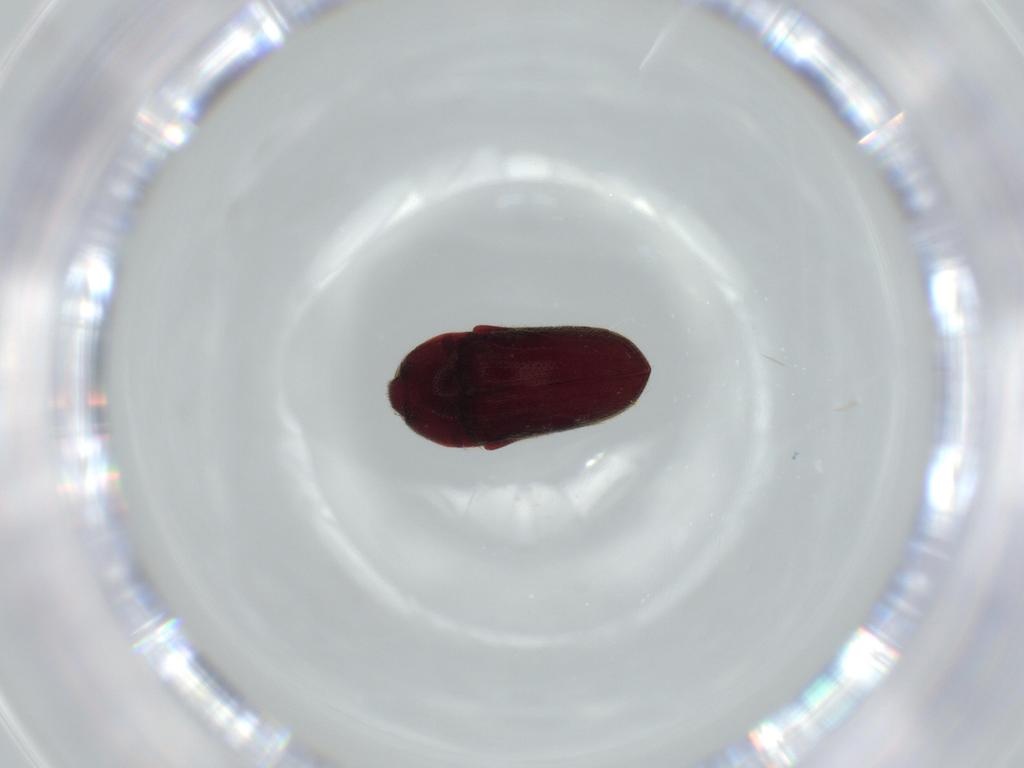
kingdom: Animalia
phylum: Arthropoda
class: Insecta
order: Coleoptera
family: Throscidae
